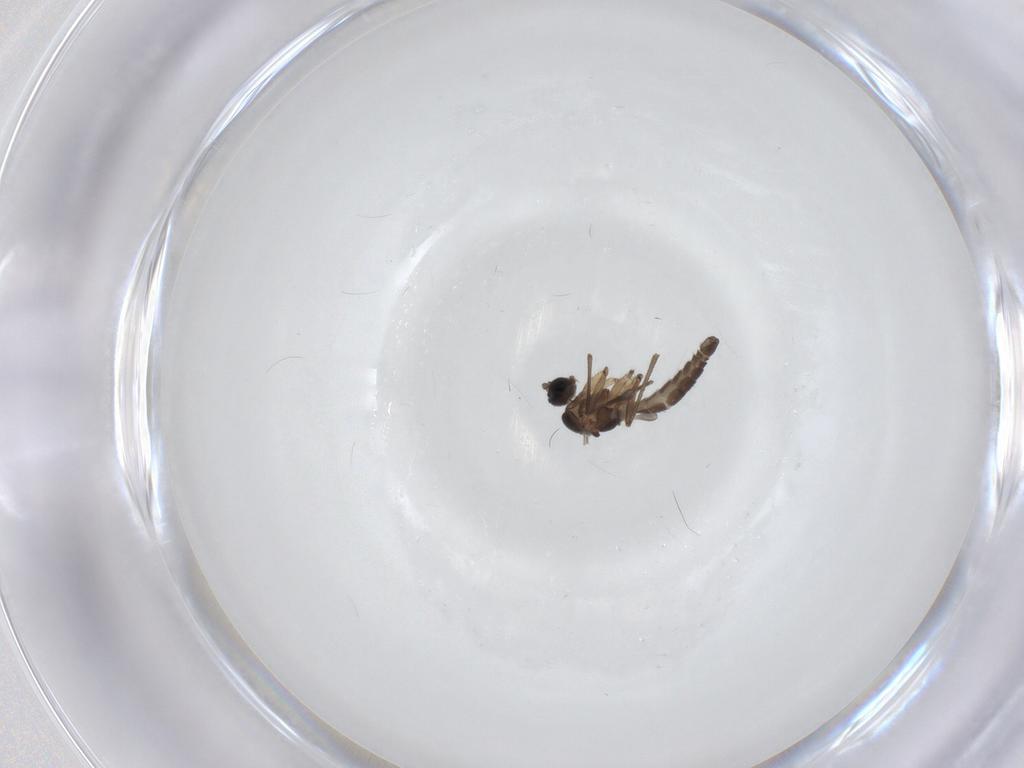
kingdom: Animalia
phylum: Arthropoda
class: Insecta
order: Diptera
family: Sciaridae
